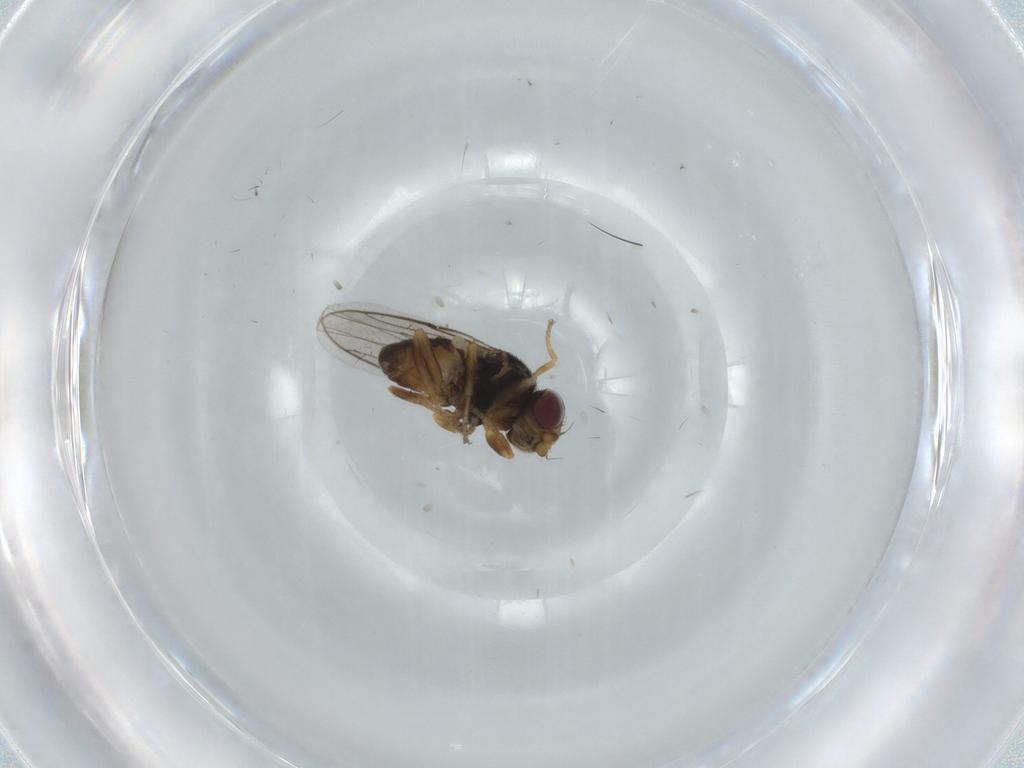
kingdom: Animalia
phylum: Arthropoda
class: Insecta
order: Diptera
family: Chloropidae
